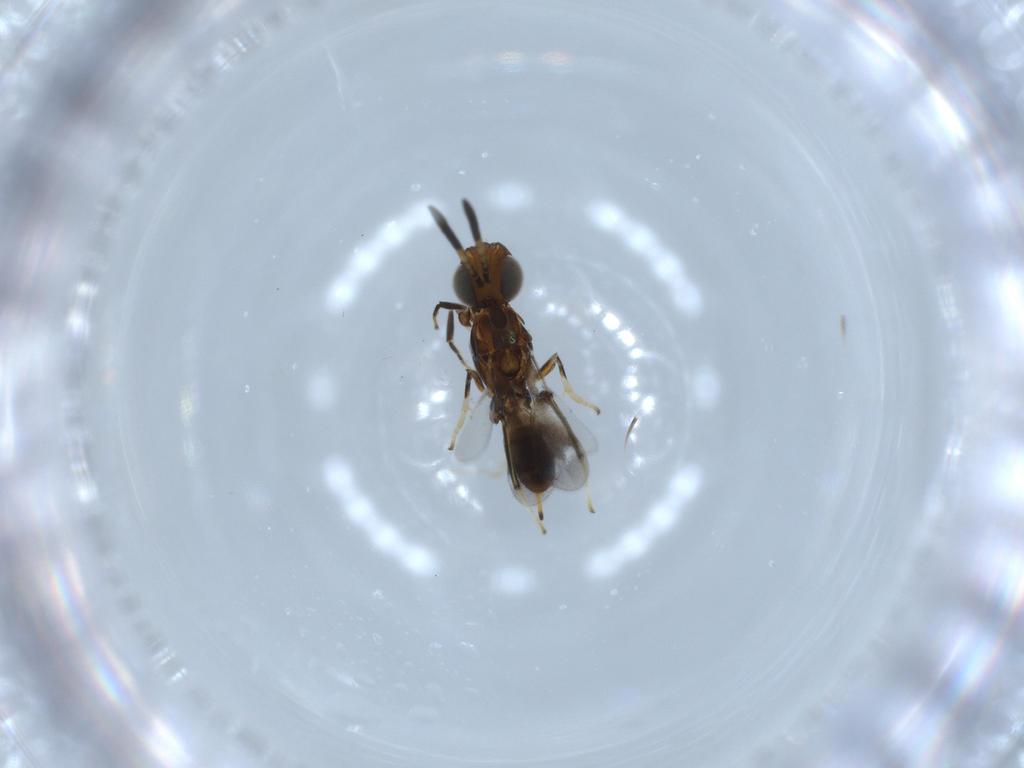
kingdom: Animalia
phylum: Arthropoda
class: Insecta
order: Hymenoptera
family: Eupelmidae
